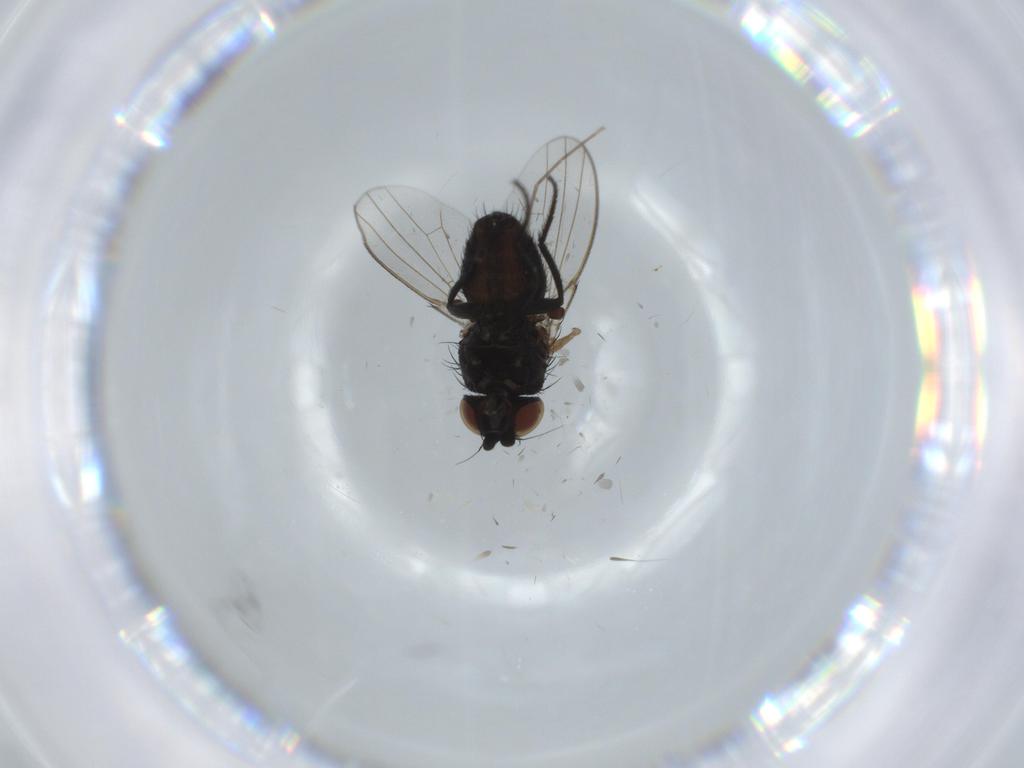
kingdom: Animalia
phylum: Arthropoda
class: Insecta
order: Diptera
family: Milichiidae
